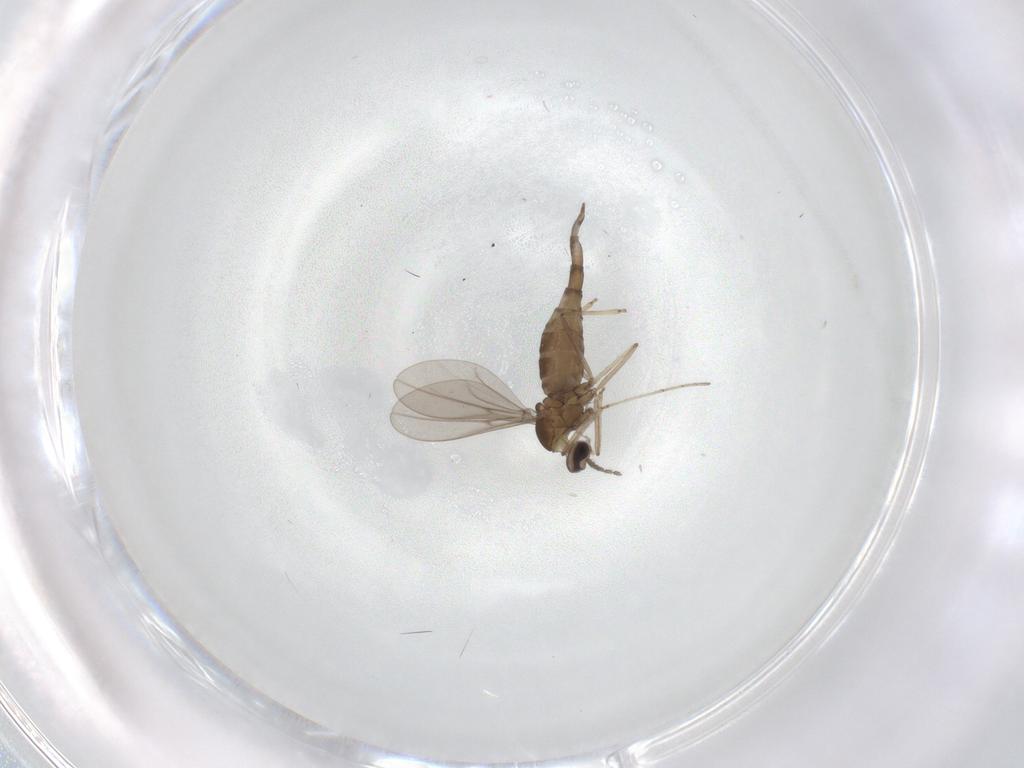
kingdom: Animalia
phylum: Arthropoda
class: Insecta
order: Diptera
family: Cecidomyiidae
